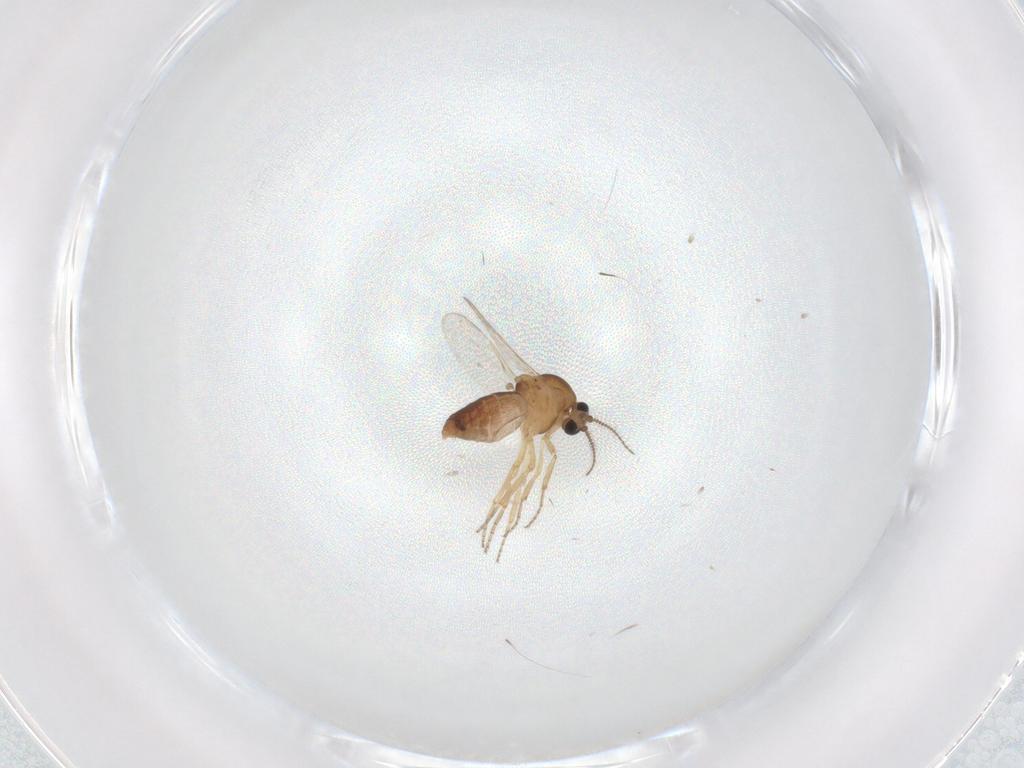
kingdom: Animalia
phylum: Arthropoda
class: Insecta
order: Diptera
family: Ceratopogonidae
